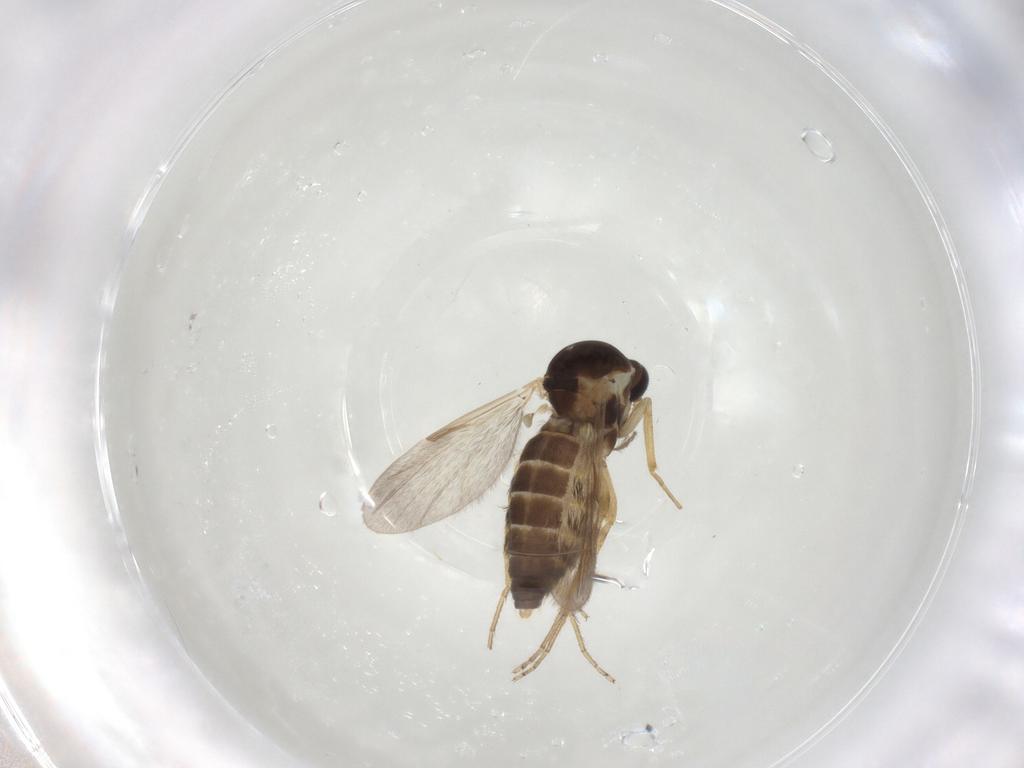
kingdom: Animalia
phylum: Arthropoda
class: Insecta
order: Diptera
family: Ceratopogonidae
